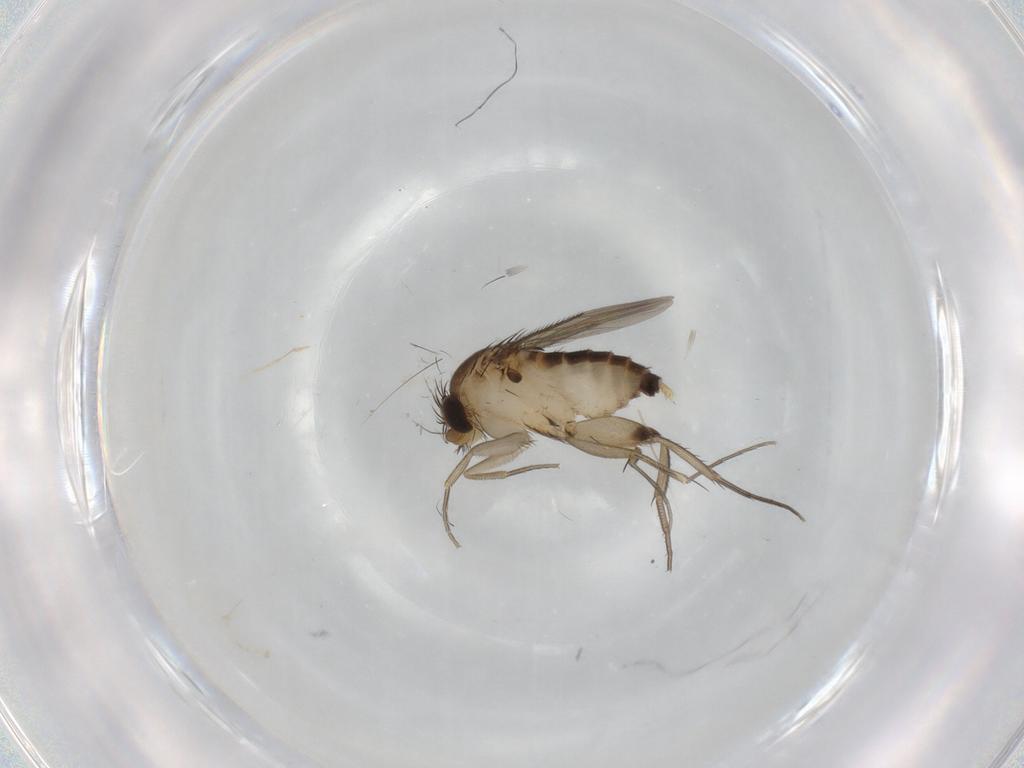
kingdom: Animalia
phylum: Arthropoda
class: Insecta
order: Diptera
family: Phoridae
